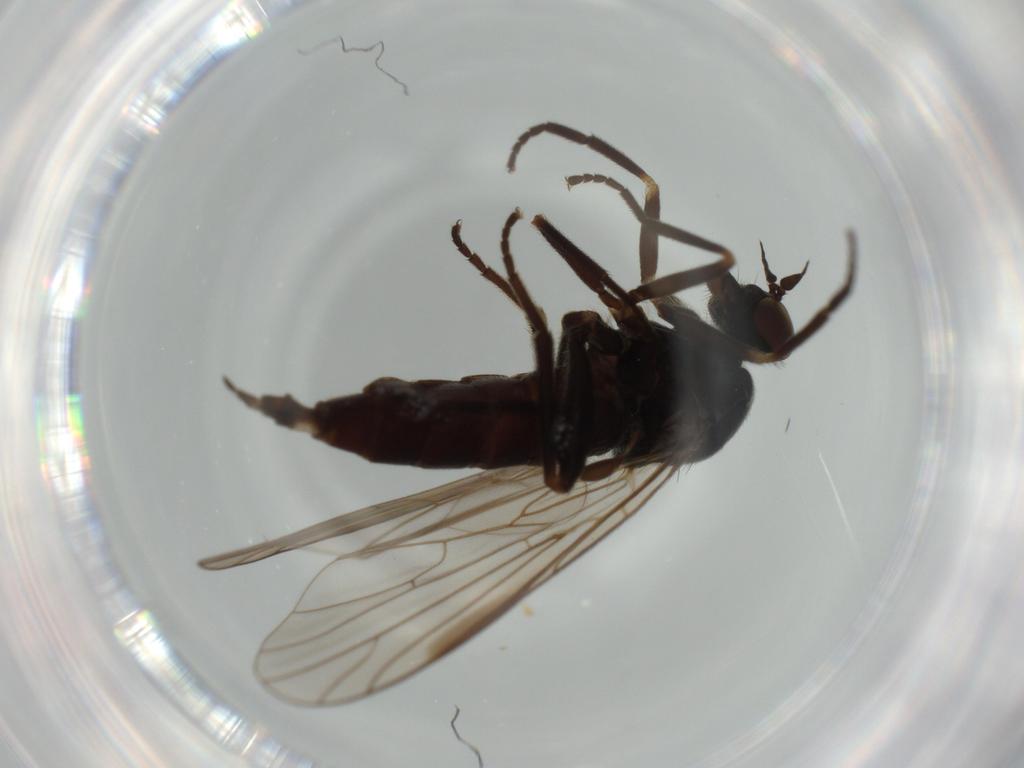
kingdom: Animalia
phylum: Arthropoda
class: Insecta
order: Diptera
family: Empididae
